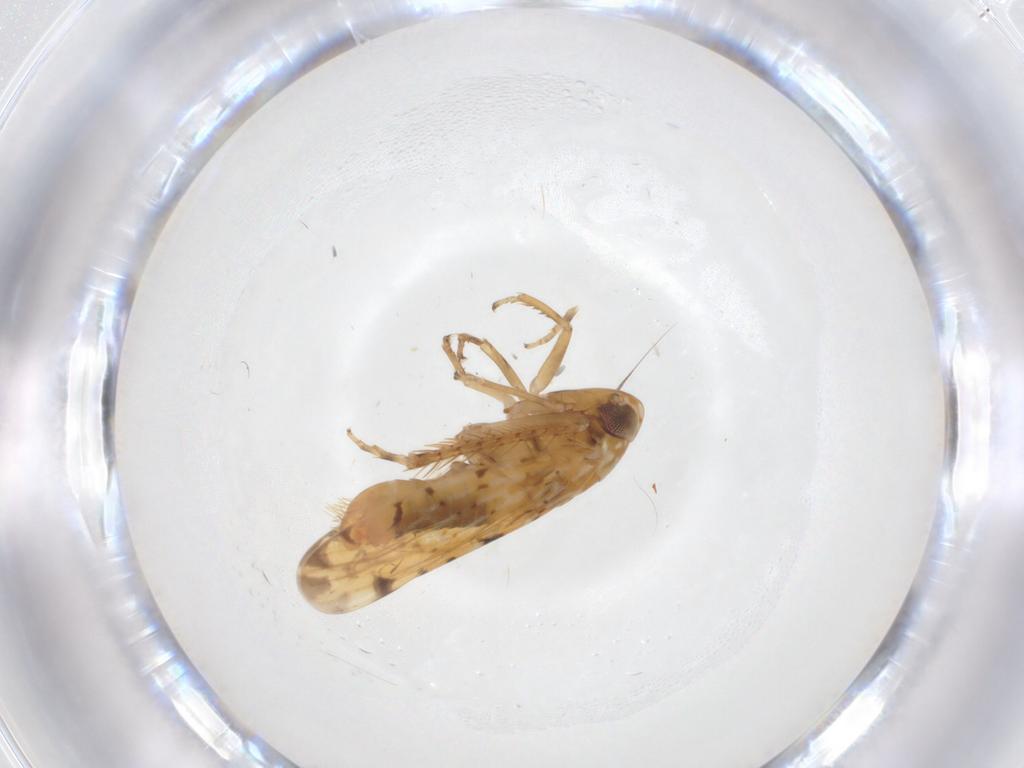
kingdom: Animalia
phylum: Arthropoda
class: Insecta
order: Hemiptera
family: Cicadellidae
